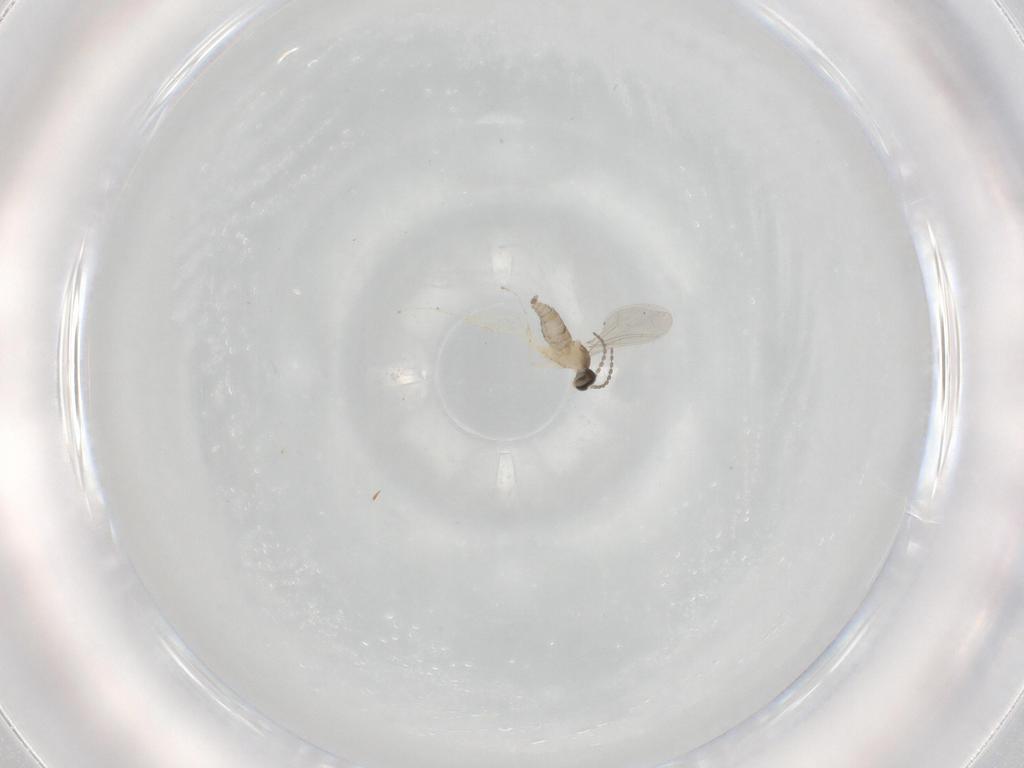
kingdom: Animalia
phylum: Arthropoda
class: Insecta
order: Diptera
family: Cecidomyiidae
